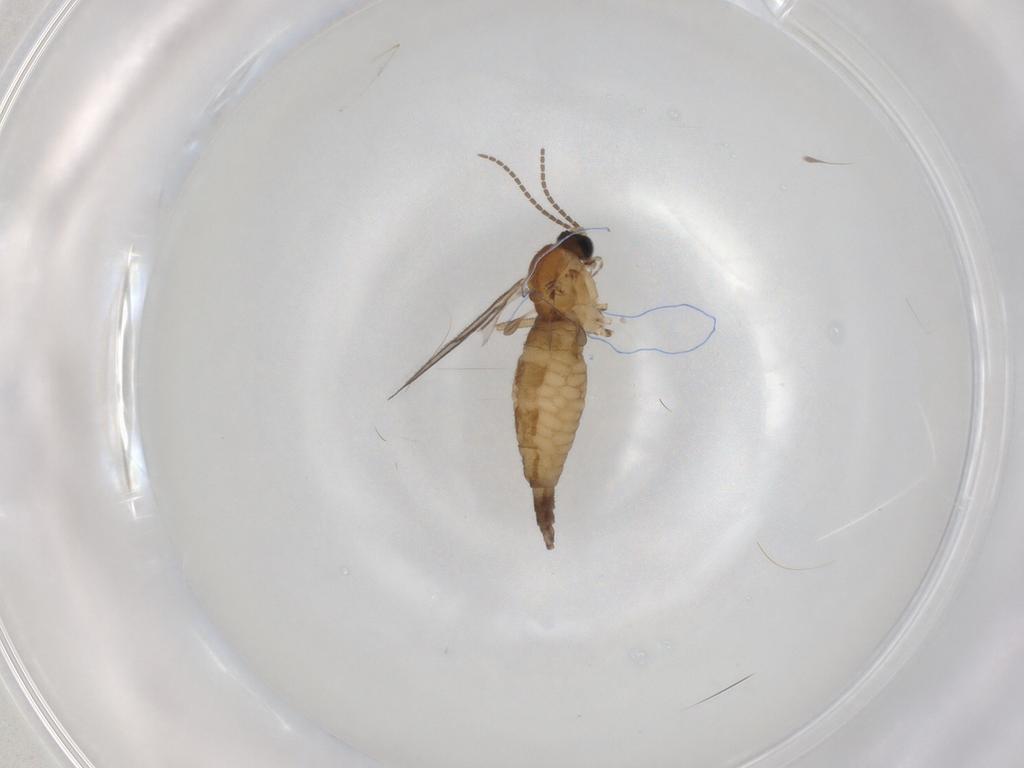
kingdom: Animalia
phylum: Arthropoda
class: Insecta
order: Diptera
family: Sciaridae
